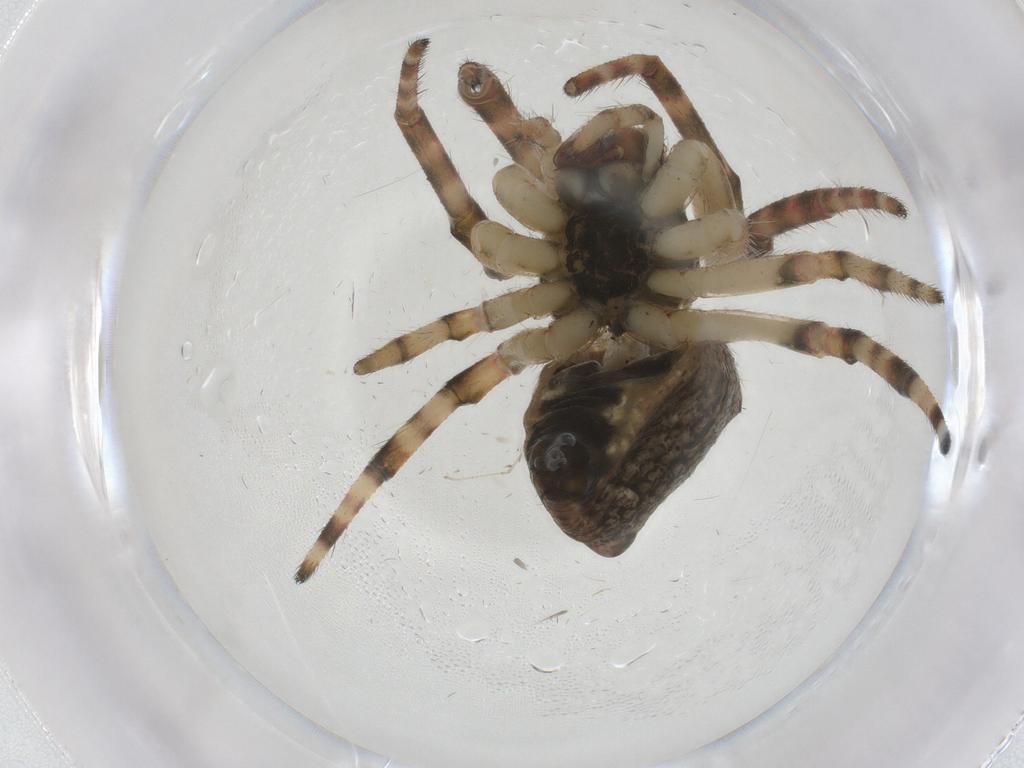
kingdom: Animalia
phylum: Arthropoda
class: Arachnida
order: Araneae
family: Araneidae
